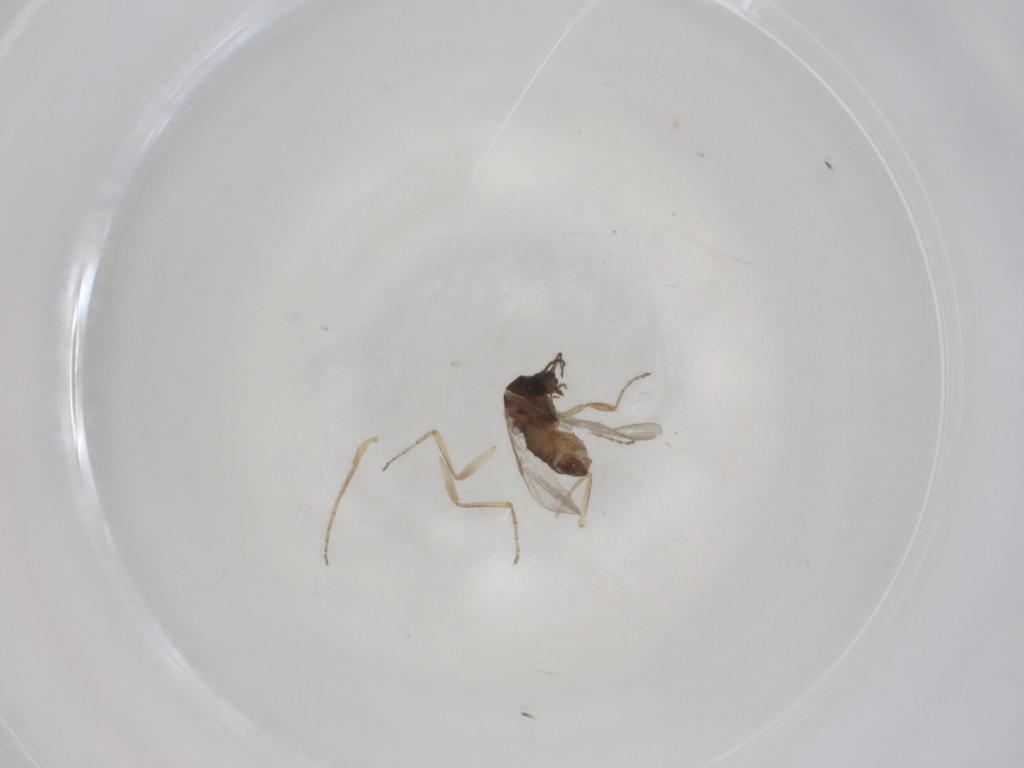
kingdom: Animalia
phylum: Arthropoda
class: Insecta
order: Diptera
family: Ceratopogonidae
